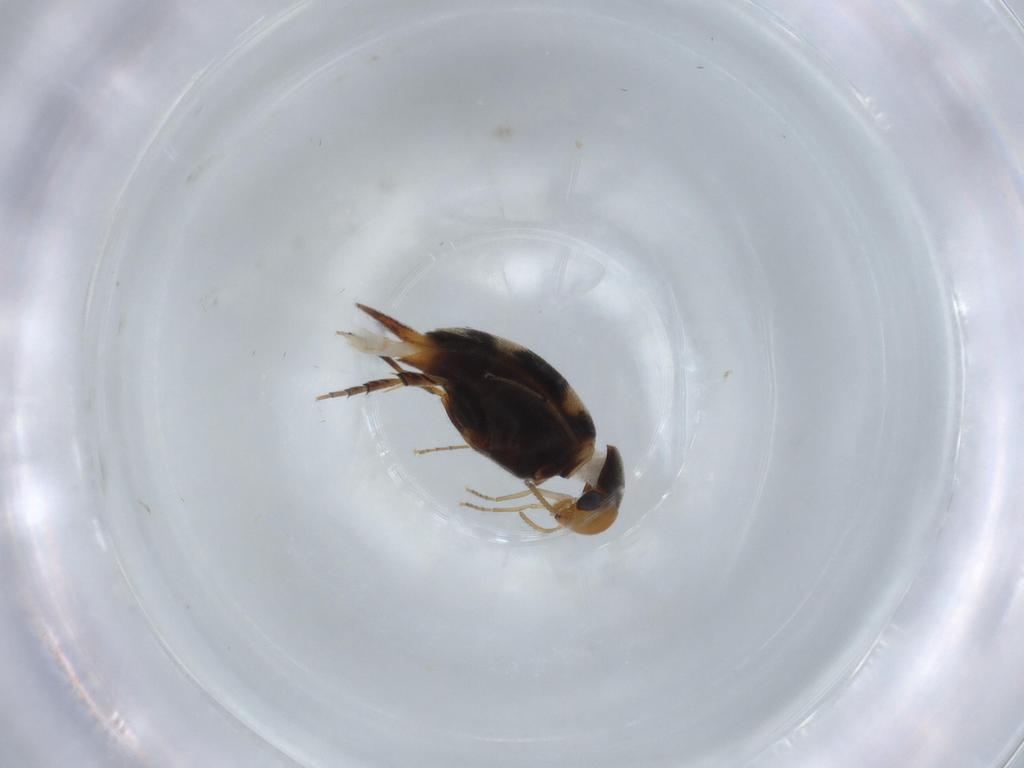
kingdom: Animalia
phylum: Arthropoda
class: Insecta
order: Coleoptera
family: Mordellidae
